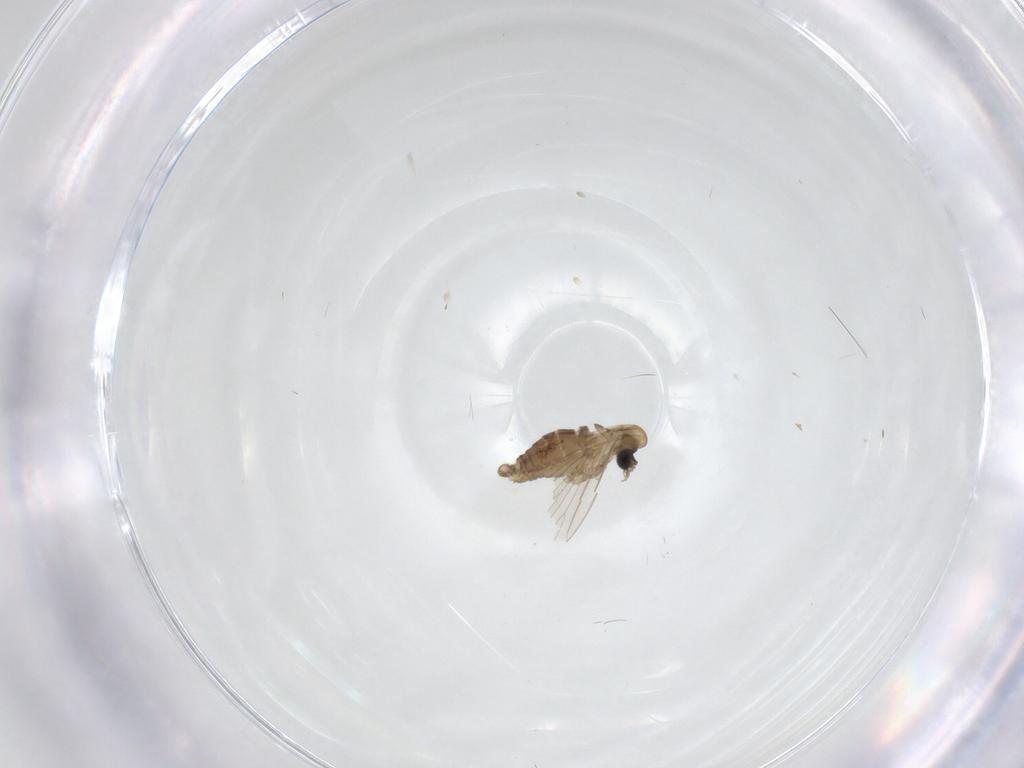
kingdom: Animalia
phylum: Arthropoda
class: Insecta
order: Diptera
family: Psychodidae
